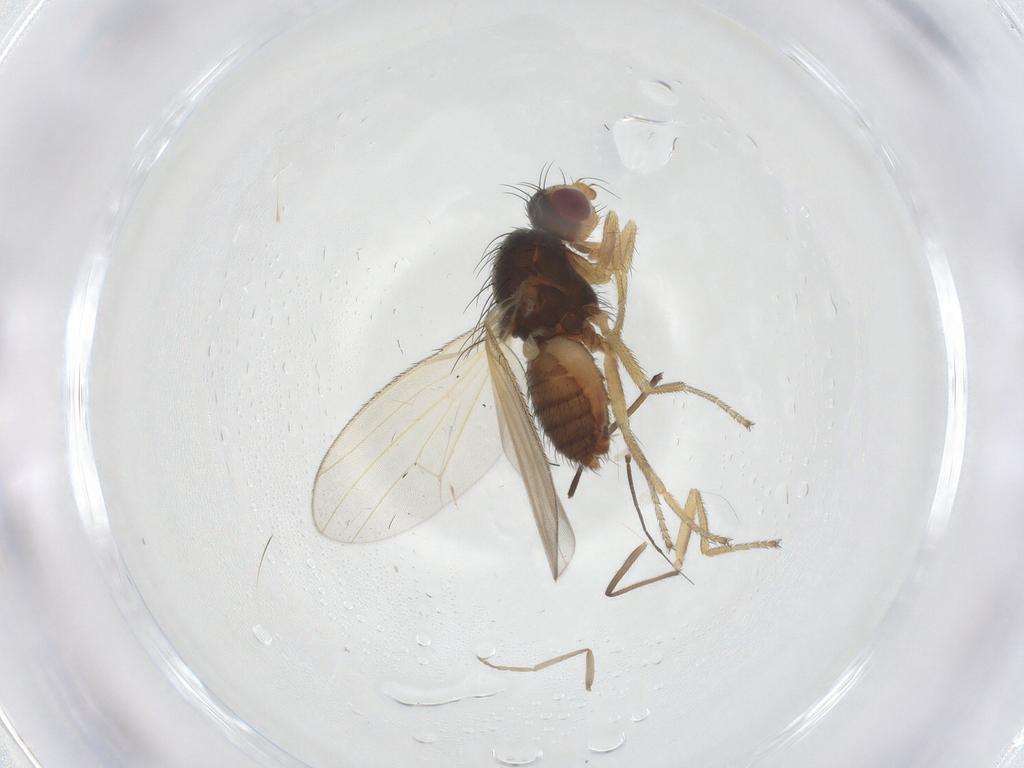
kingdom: Animalia
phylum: Arthropoda
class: Insecta
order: Diptera
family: Heleomyzidae
